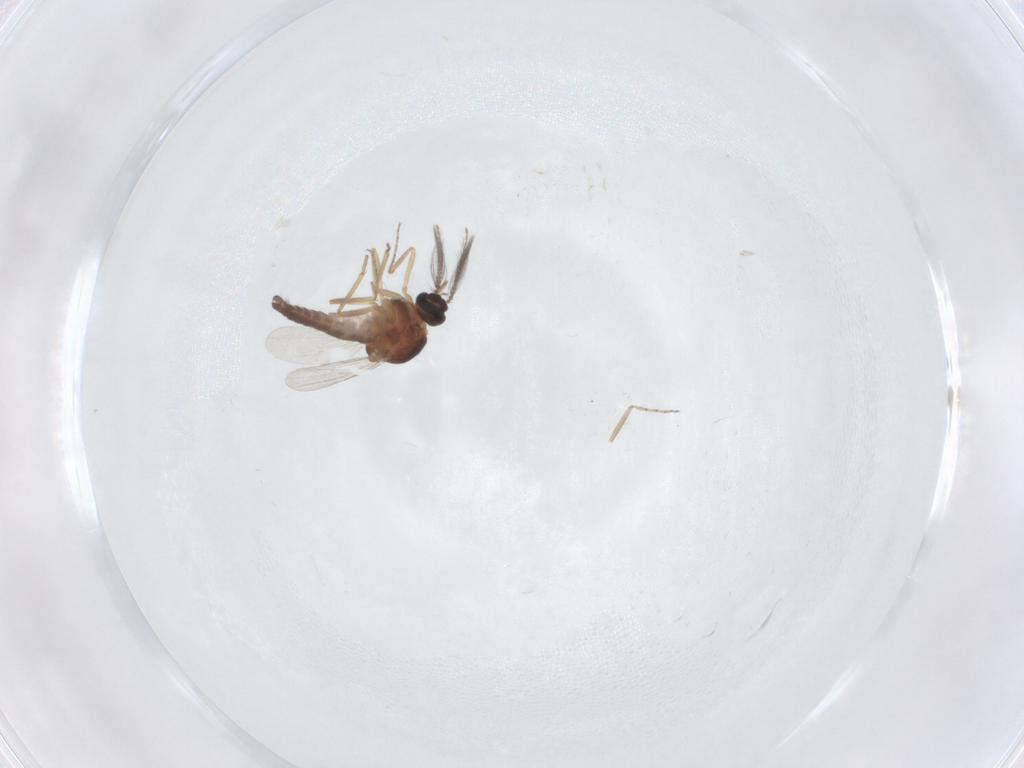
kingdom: Animalia
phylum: Arthropoda
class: Insecta
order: Diptera
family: Ceratopogonidae
